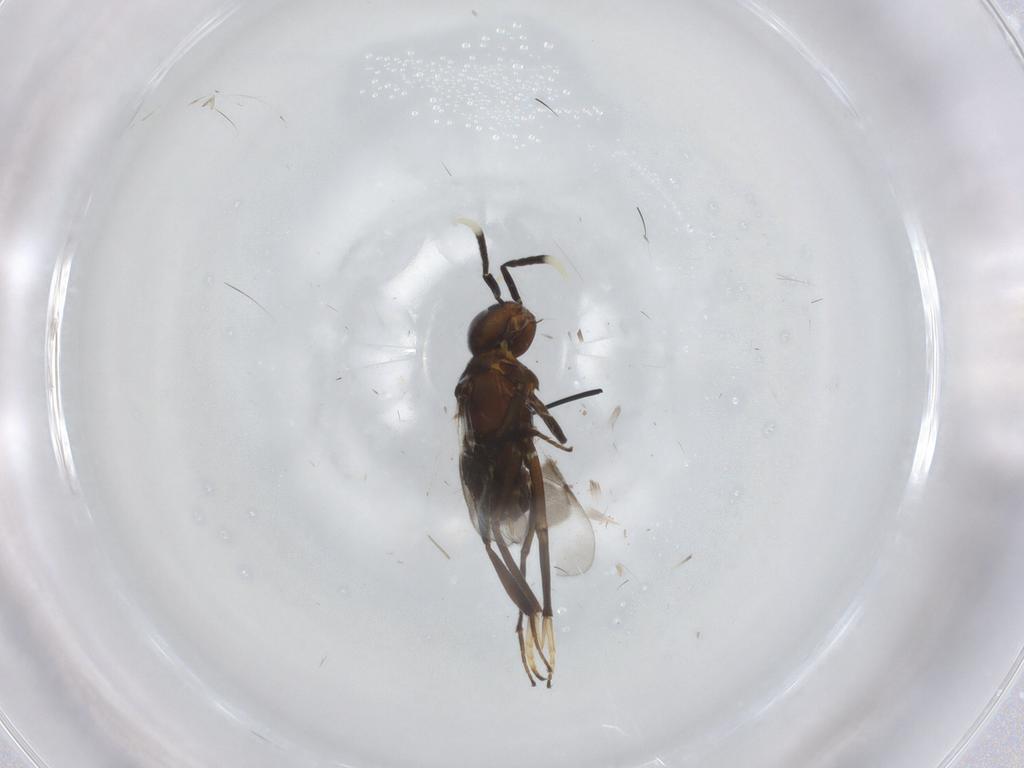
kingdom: Animalia
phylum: Arthropoda
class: Insecta
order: Hymenoptera
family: Encyrtidae
